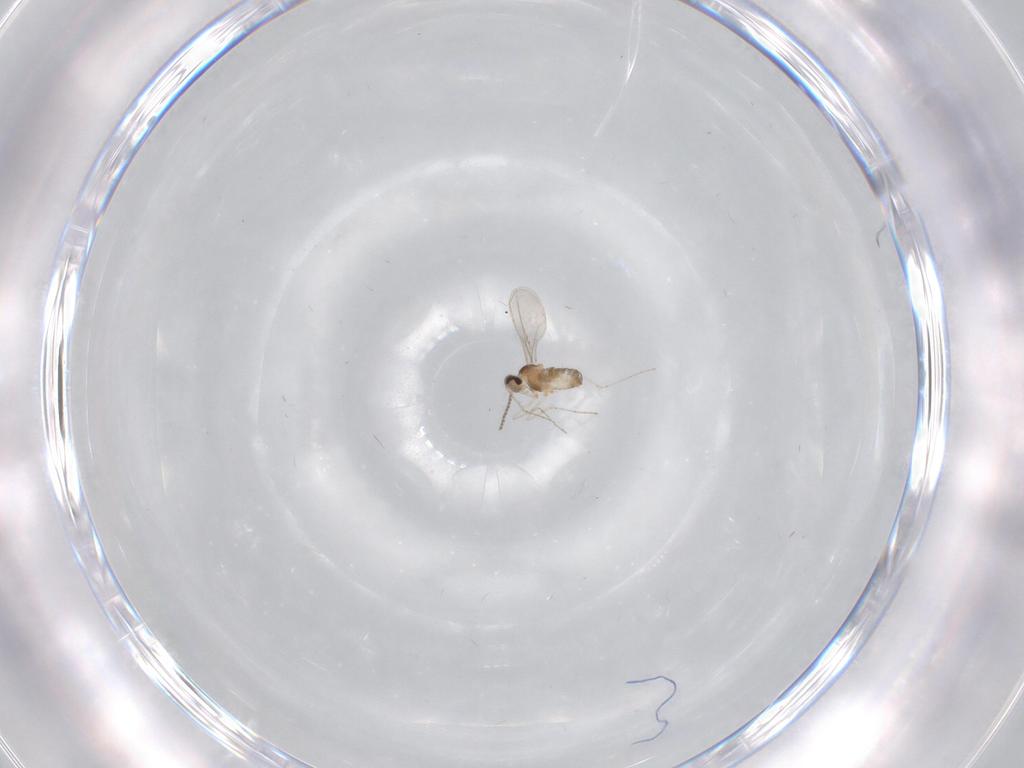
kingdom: Animalia
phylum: Arthropoda
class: Insecta
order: Diptera
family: Cecidomyiidae
